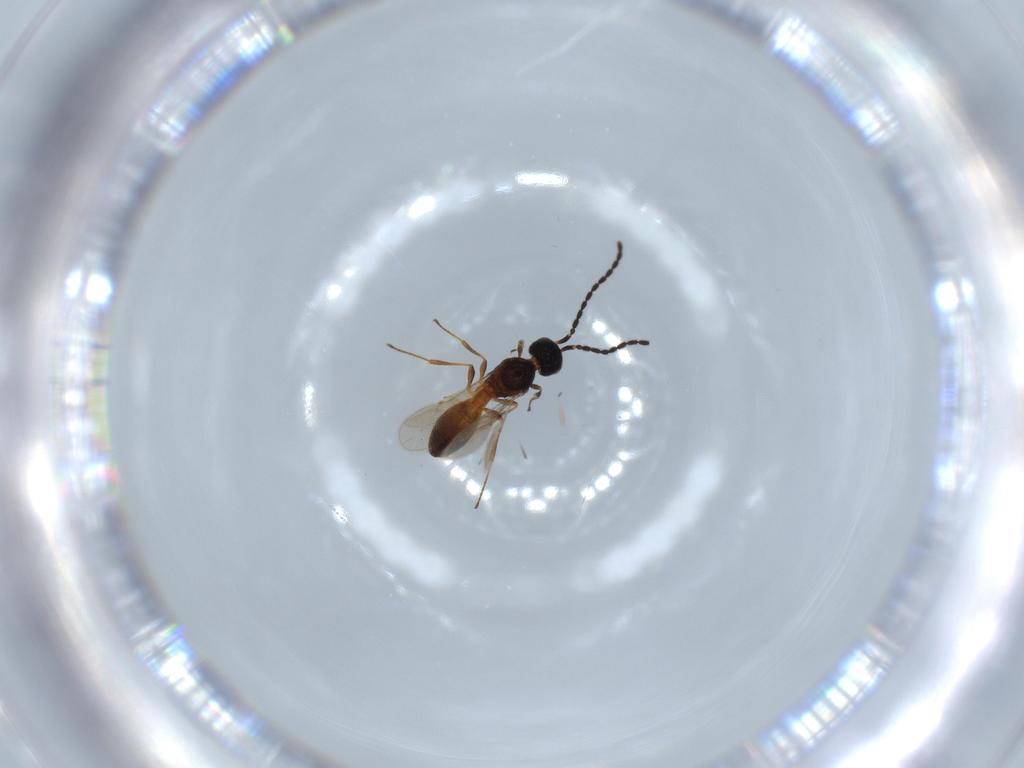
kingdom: Animalia
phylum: Arthropoda
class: Insecta
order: Hymenoptera
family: Scelionidae
